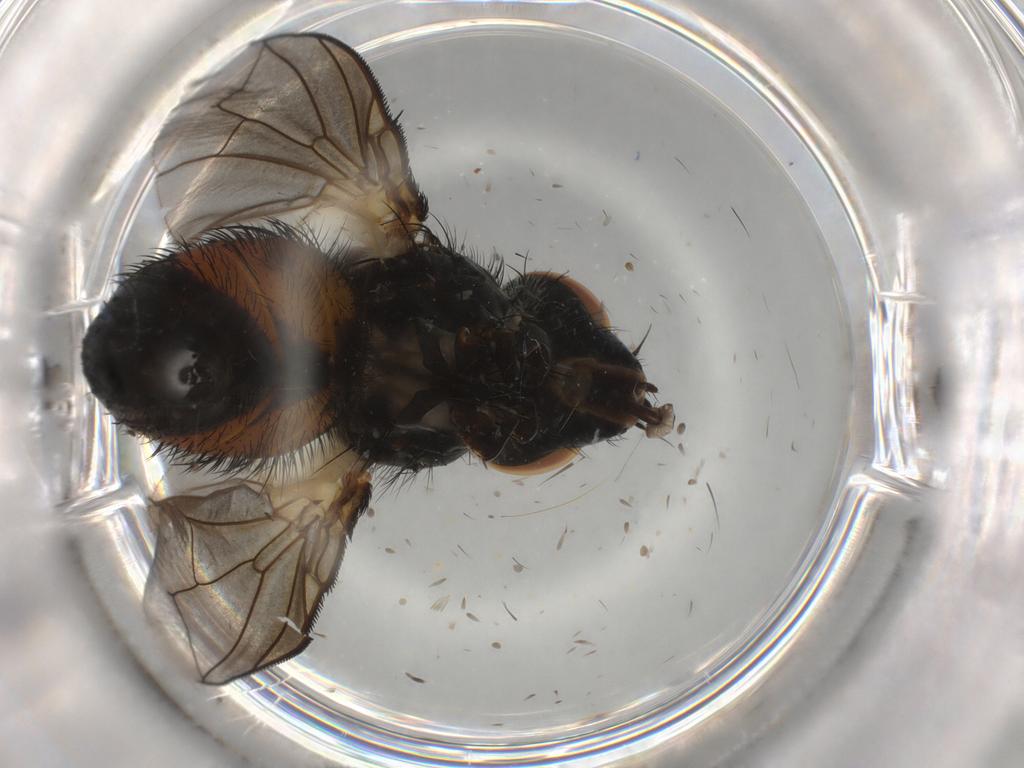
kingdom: Animalia
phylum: Arthropoda
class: Insecta
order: Diptera
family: Tachinidae
